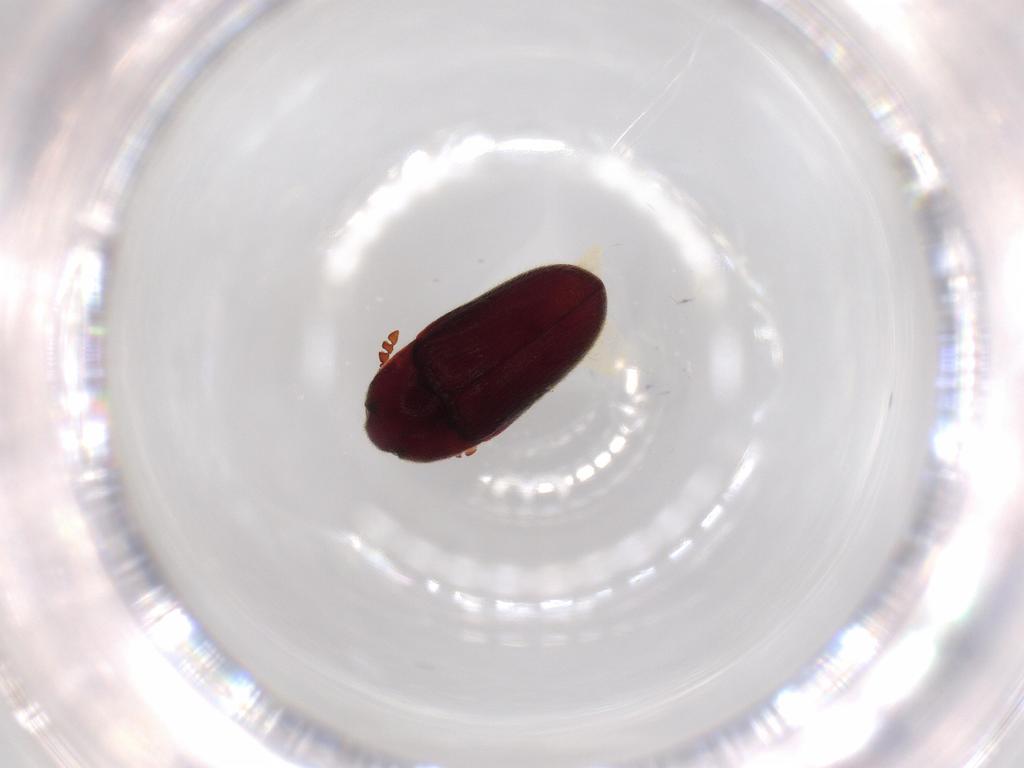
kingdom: Animalia
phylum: Arthropoda
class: Insecta
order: Coleoptera
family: Throscidae
